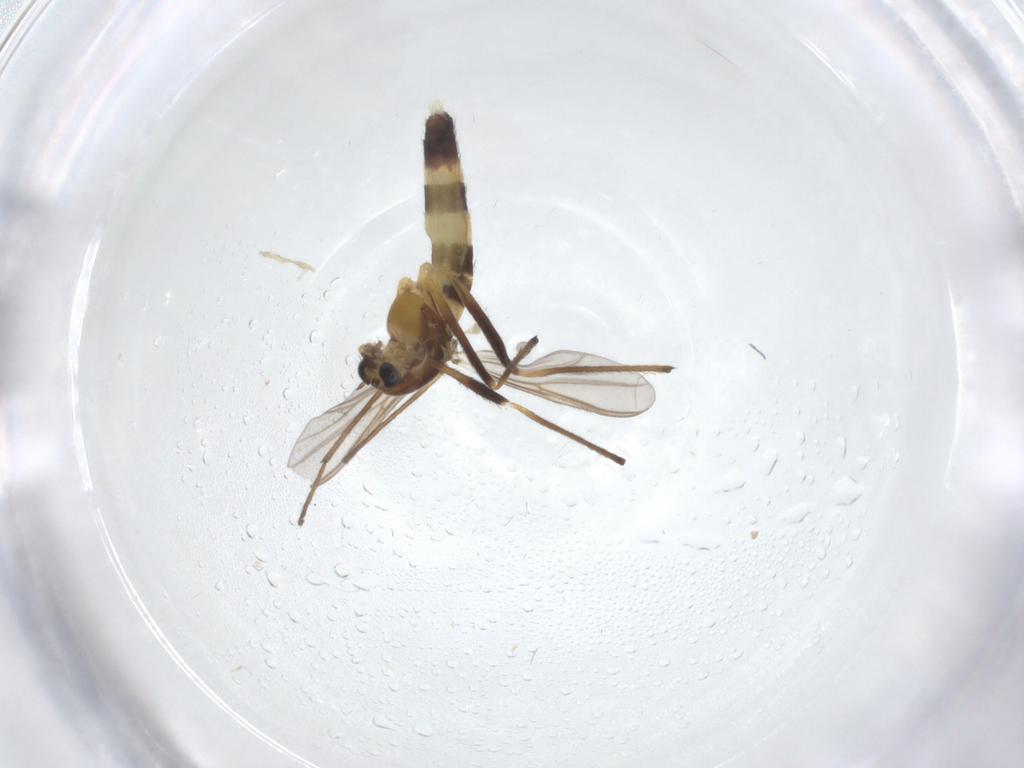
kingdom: Animalia
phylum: Arthropoda
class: Insecta
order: Diptera
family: Chironomidae
